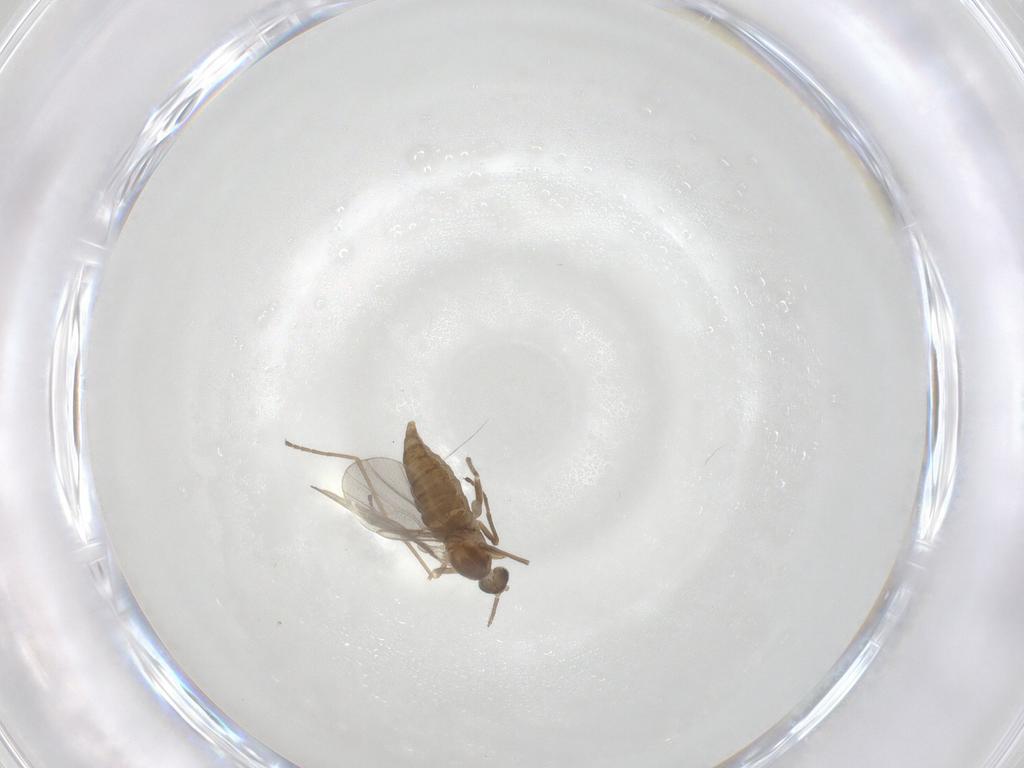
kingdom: Animalia
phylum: Arthropoda
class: Insecta
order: Diptera
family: Cecidomyiidae
